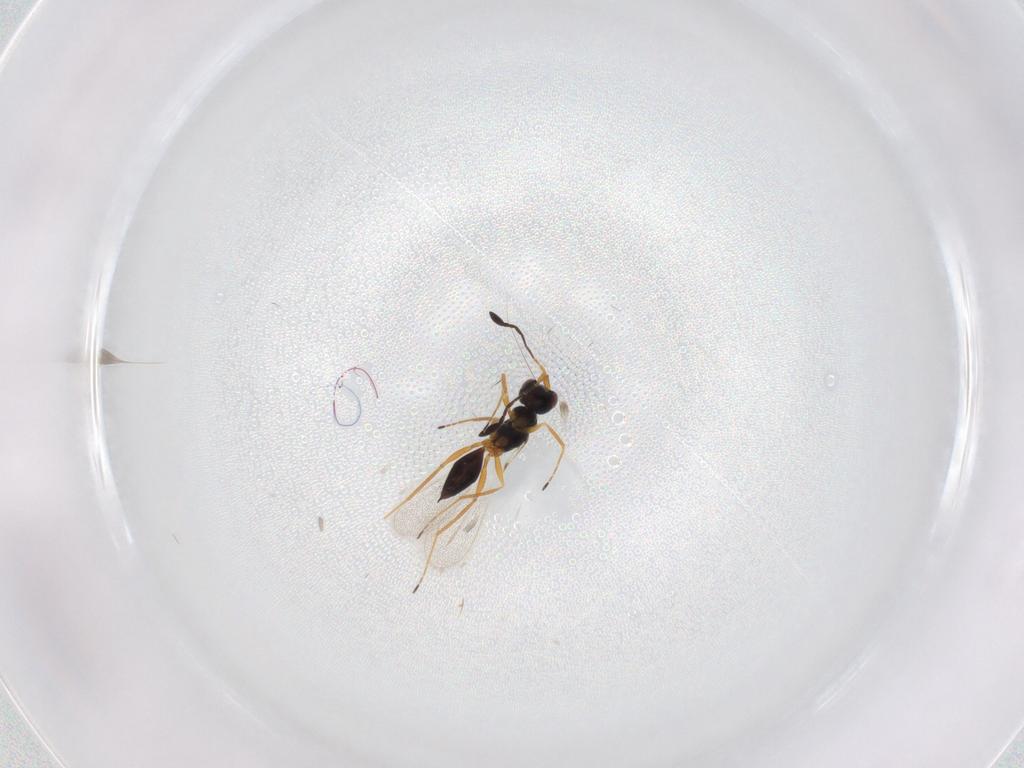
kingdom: Animalia
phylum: Arthropoda
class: Insecta
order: Hymenoptera
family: Mymaridae
